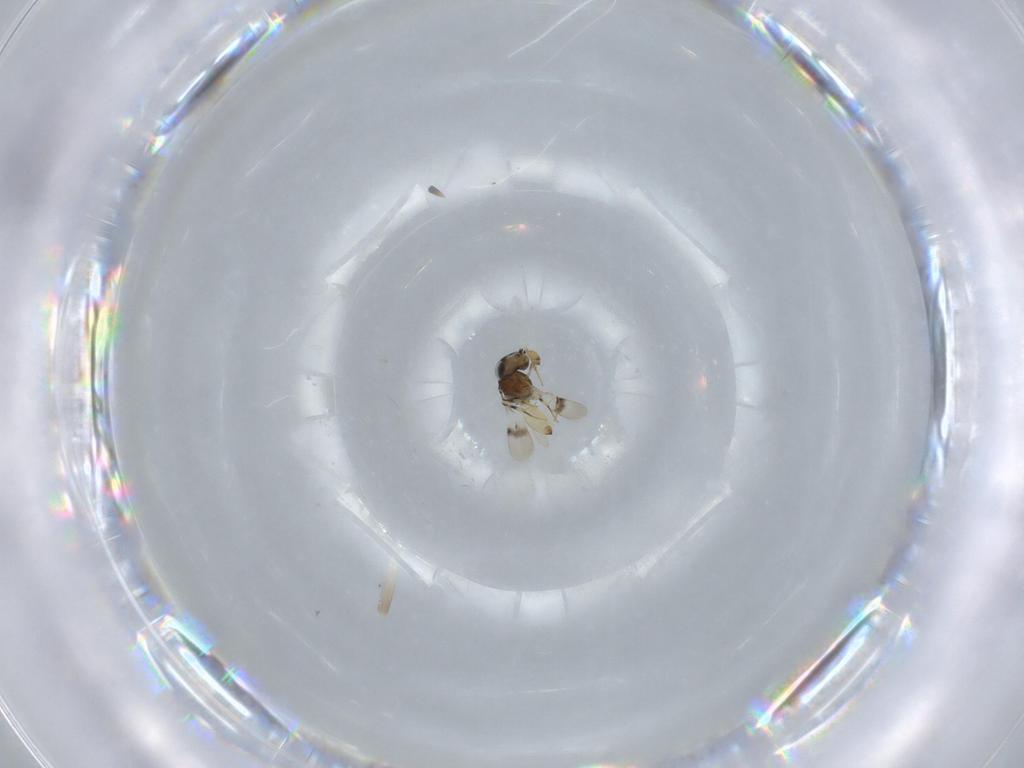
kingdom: Animalia
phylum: Arthropoda
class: Insecta
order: Hymenoptera
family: Scelionidae
